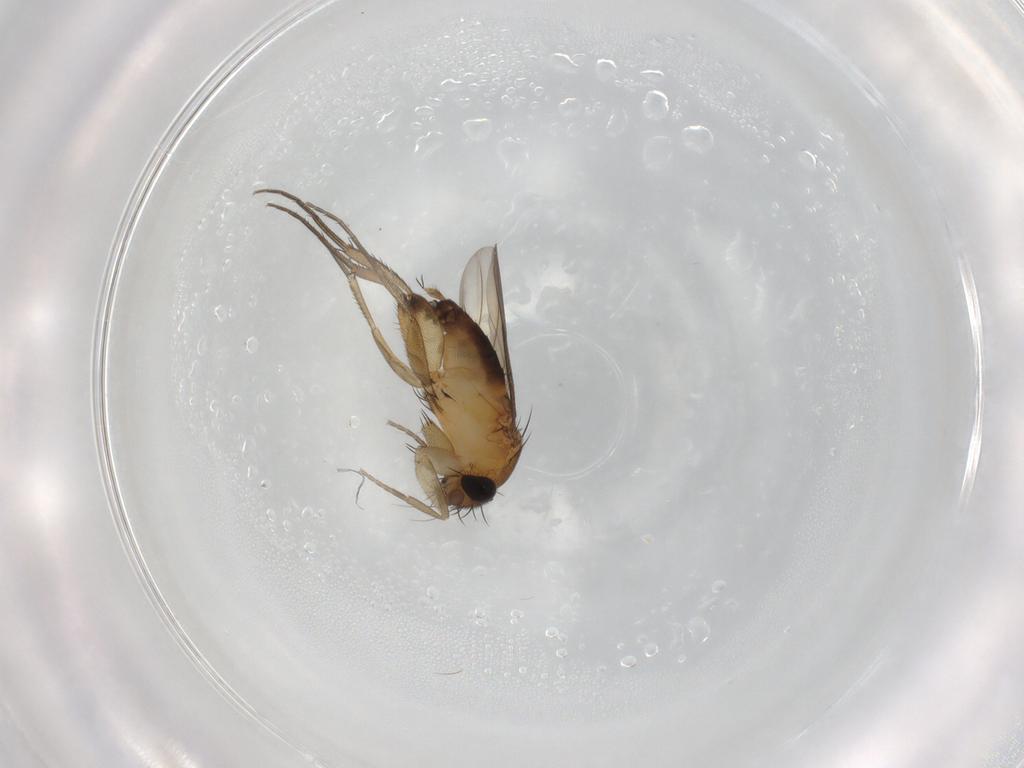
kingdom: Animalia
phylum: Arthropoda
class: Insecta
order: Diptera
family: Phoridae
